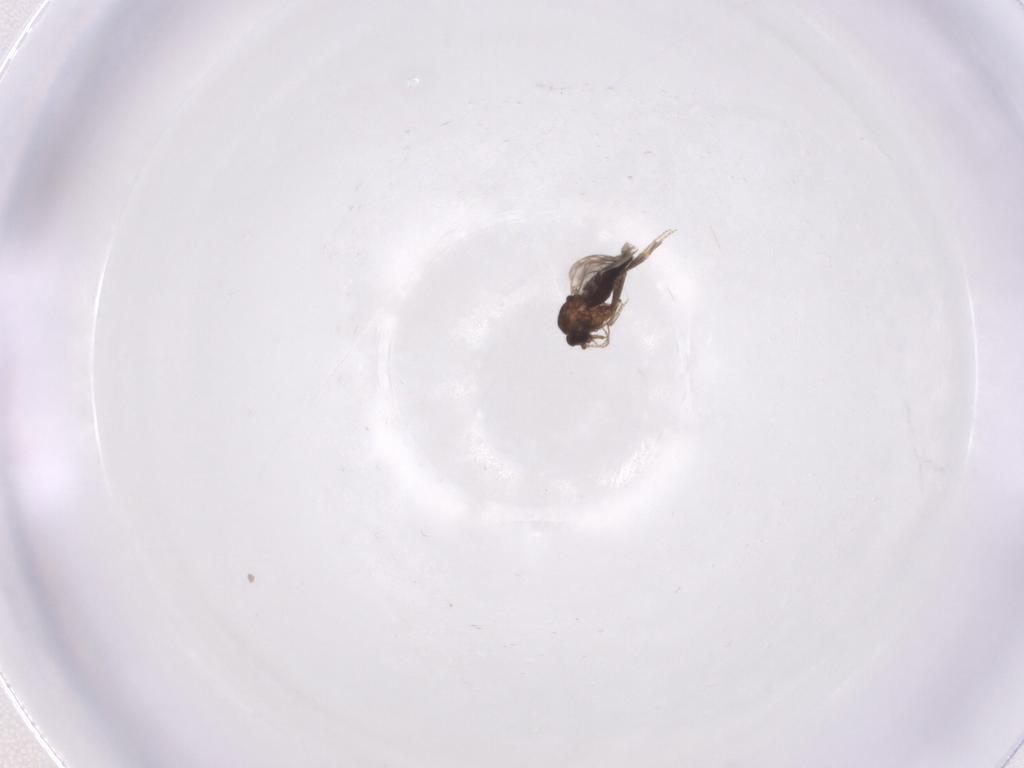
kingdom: Animalia
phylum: Arthropoda
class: Insecta
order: Diptera
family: Ceratopogonidae
